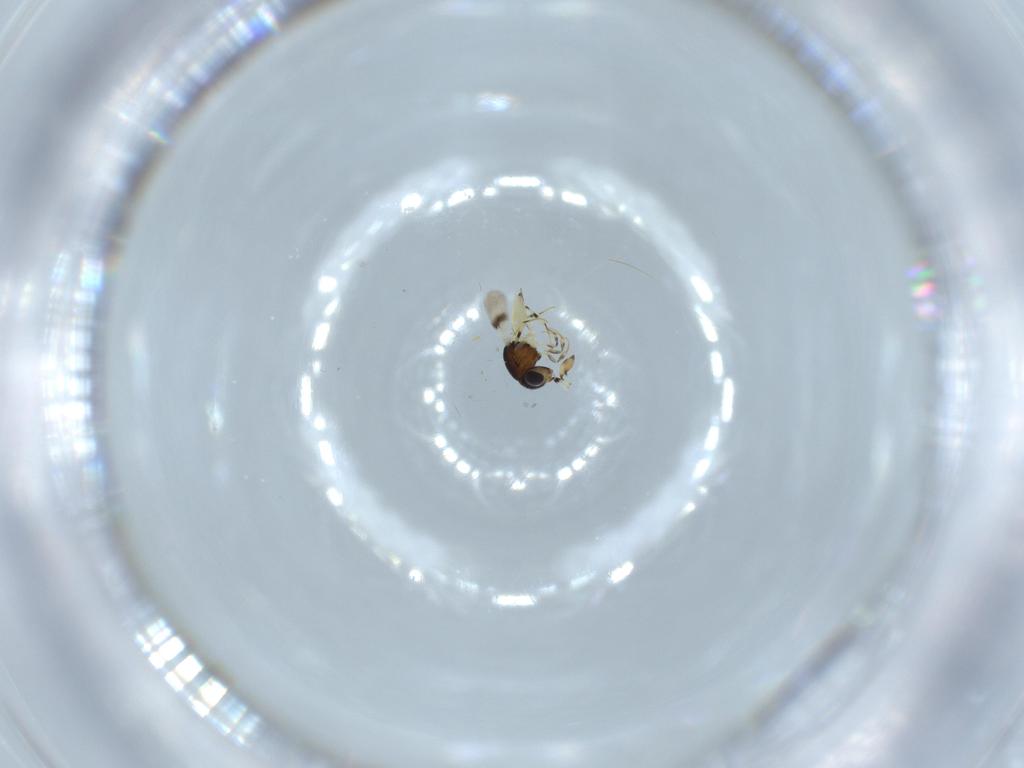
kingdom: Animalia
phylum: Arthropoda
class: Insecta
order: Hymenoptera
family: Scelionidae
